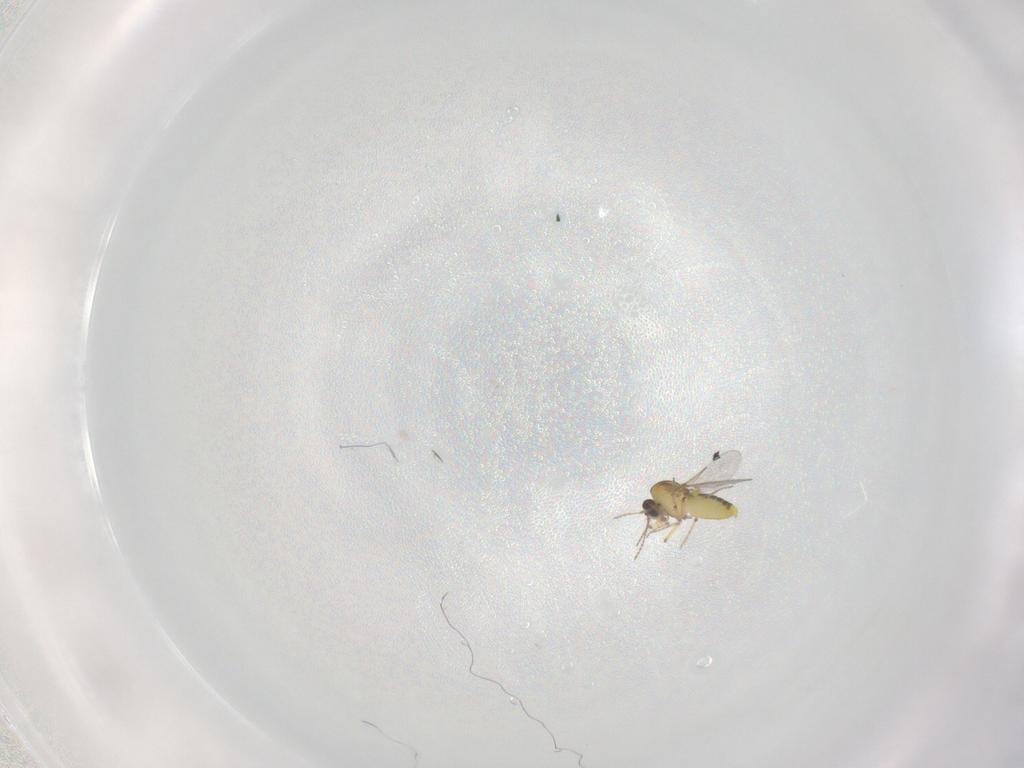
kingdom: Animalia
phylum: Arthropoda
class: Insecta
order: Diptera
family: Ceratopogonidae
